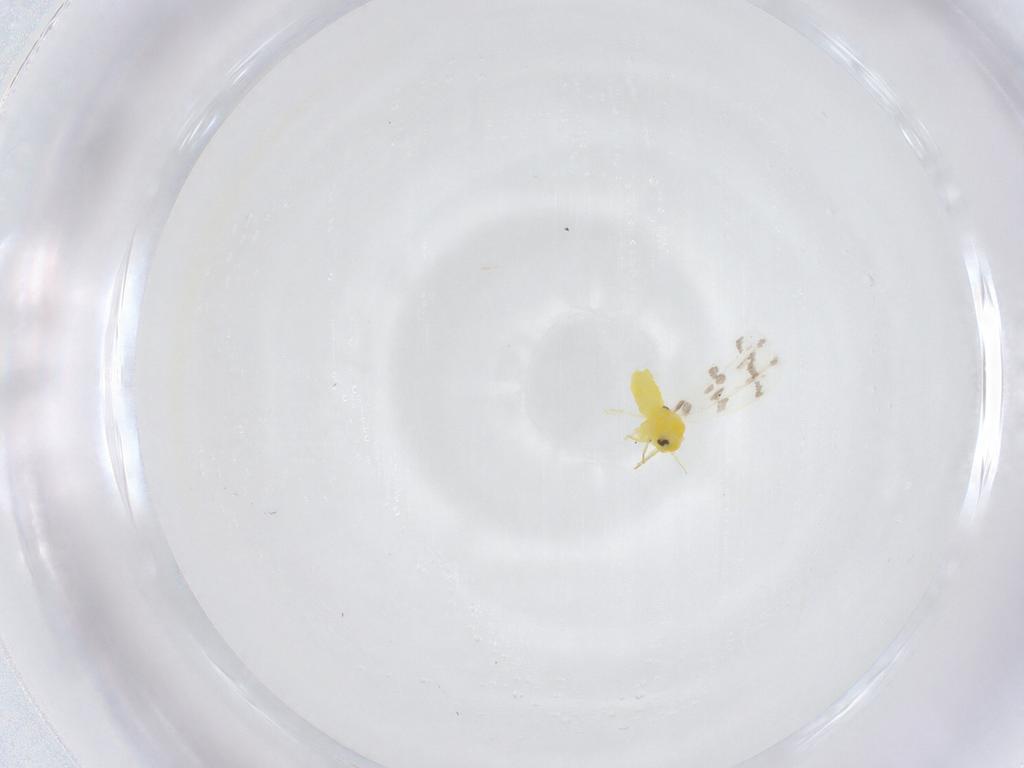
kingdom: Animalia
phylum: Arthropoda
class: Insecta
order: Hemiptera
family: Aleyrodidae
